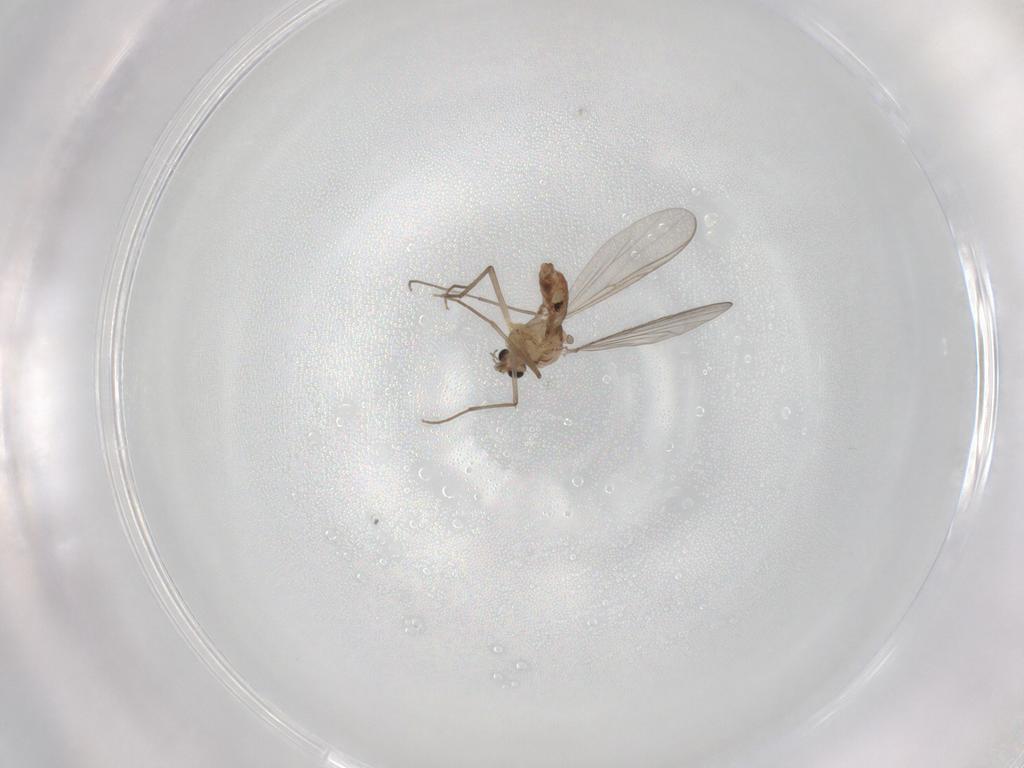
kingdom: Animalia
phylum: Arthropoda
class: Insecta
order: Diptera
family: Chironomidae
